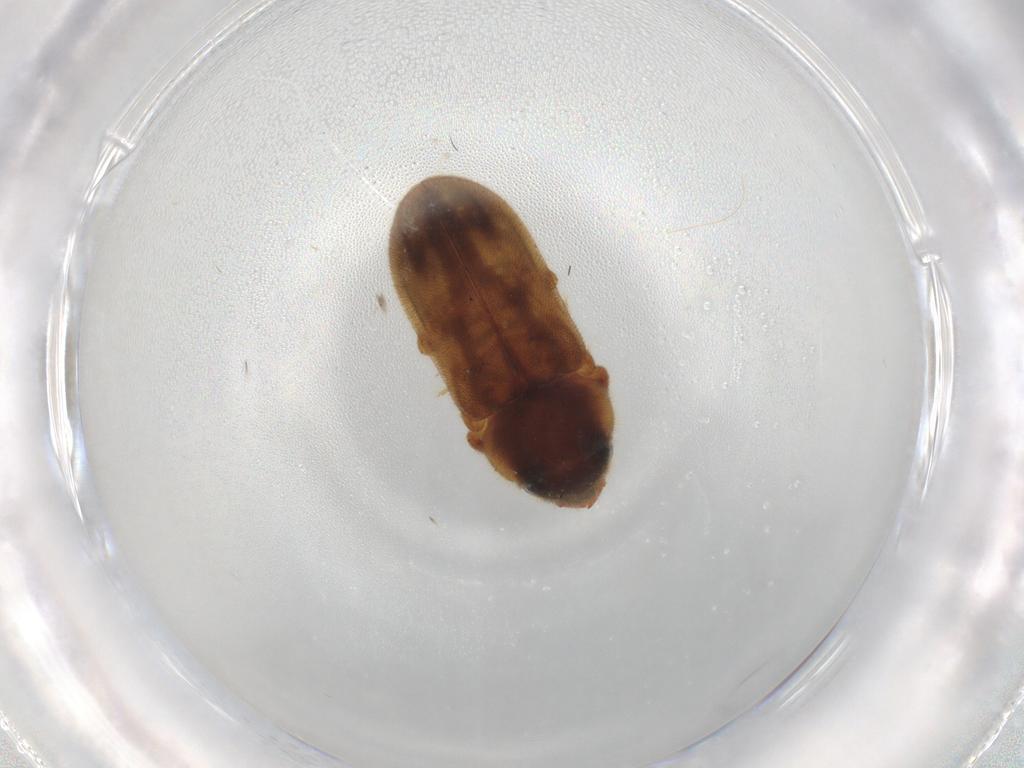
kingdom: Animalia
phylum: Arthropoda
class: Insecta
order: Coleoptera
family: Staphylinidae
